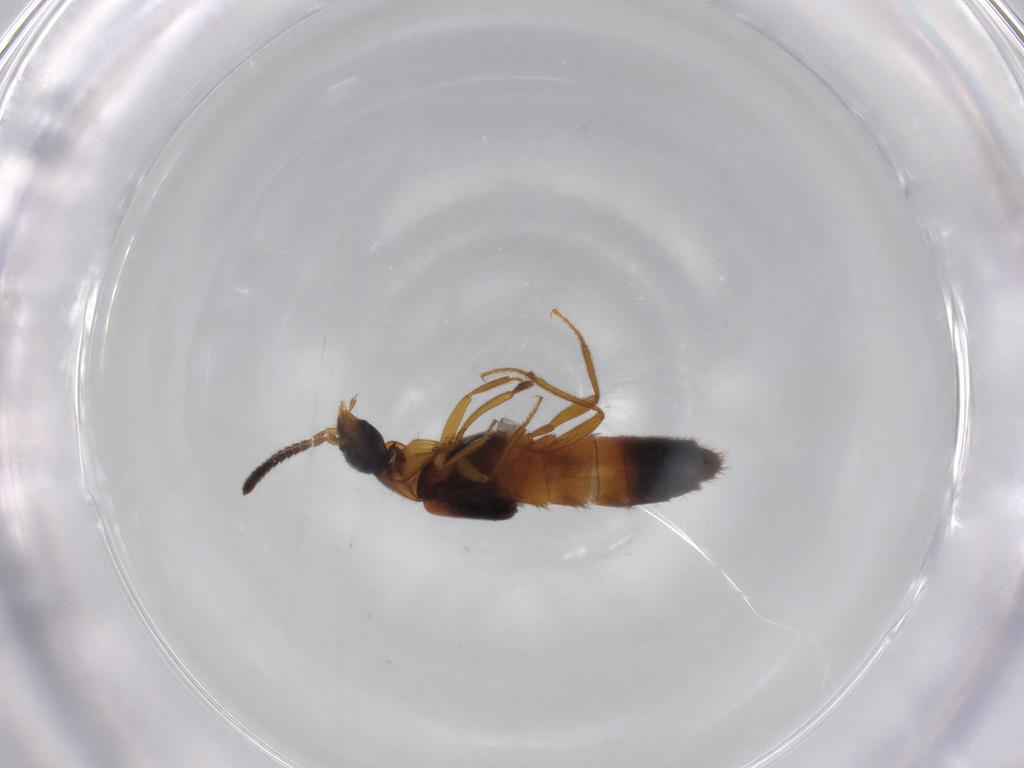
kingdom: Animalia
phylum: Arthropoda
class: Insecta
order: Coleoptera
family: Staphylinidae
